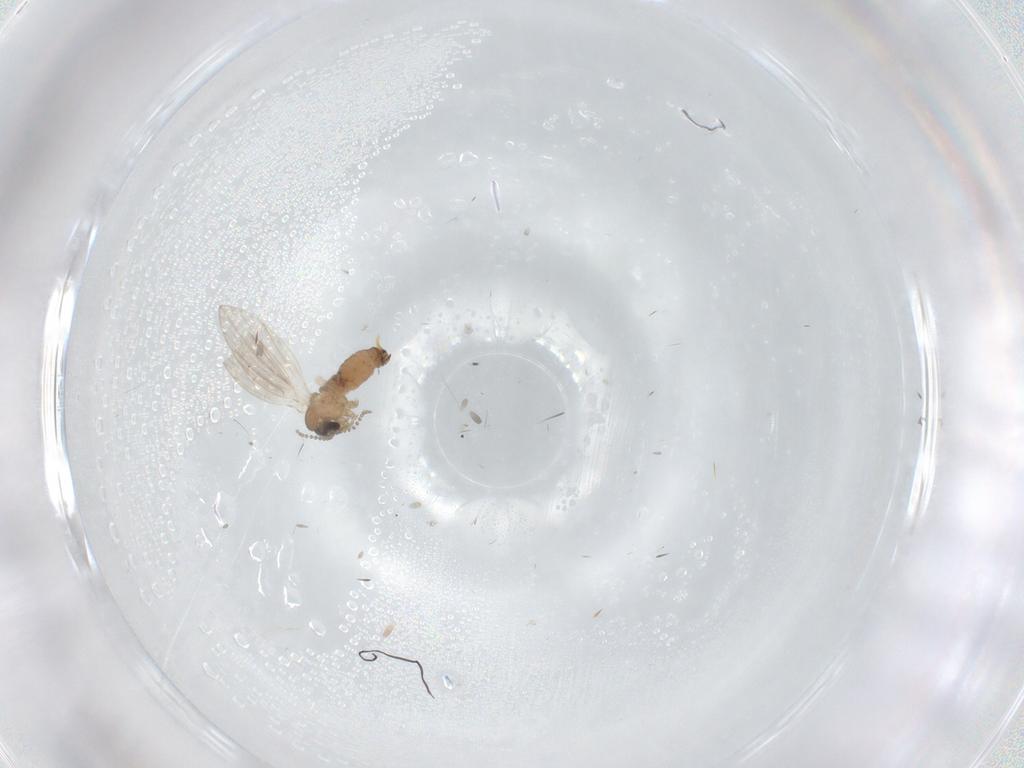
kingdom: Animalia
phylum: Arthropoda
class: Insecta
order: Diptera
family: Psychodidae
